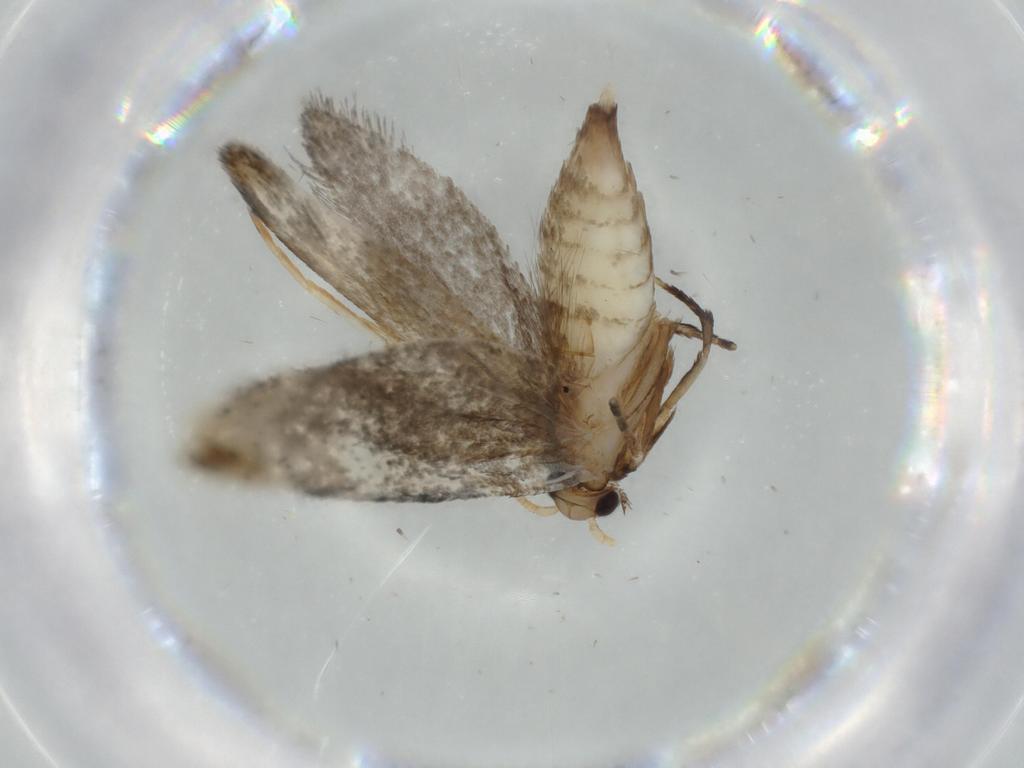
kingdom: Animalia
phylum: Arthropoda
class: Insecta
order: Lepidoptera
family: Tineidae
